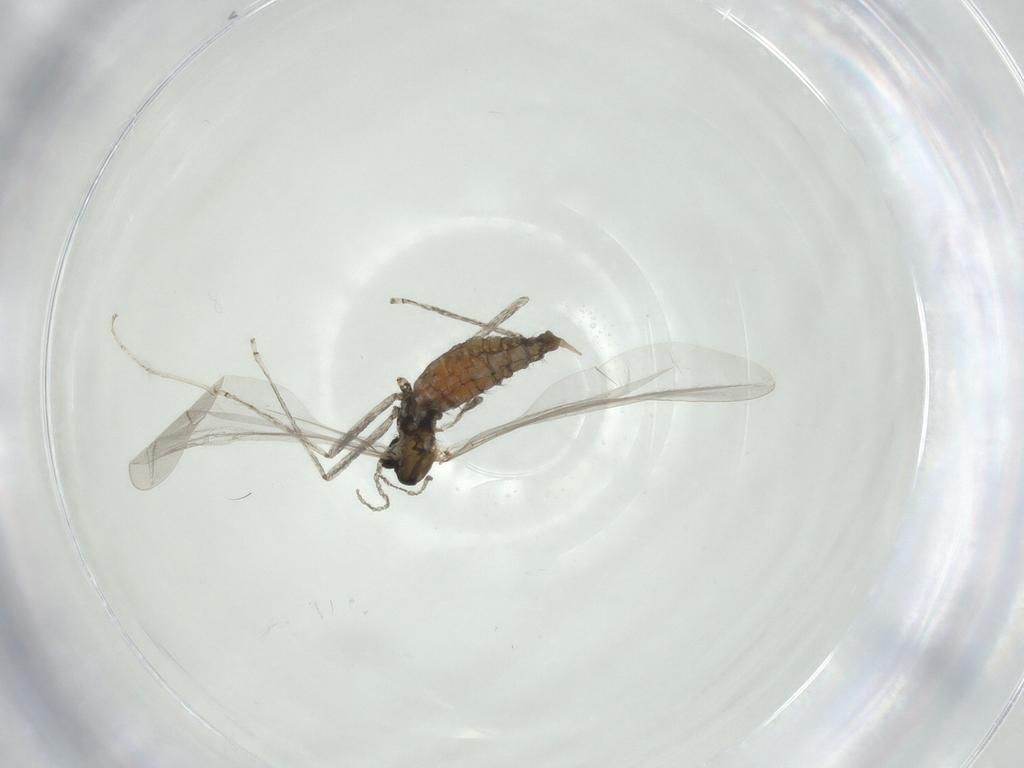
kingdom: Animalia
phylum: Arthropoda
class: Insecta
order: Diptera
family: Cecidomyiidae
